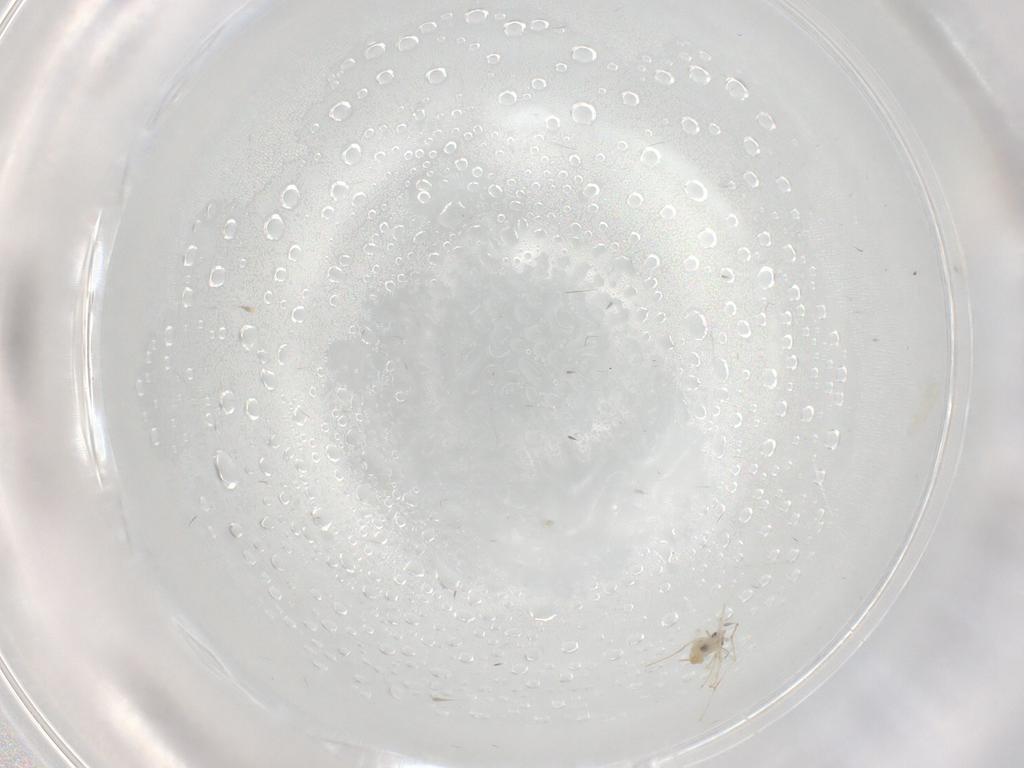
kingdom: Animalia
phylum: Arthropoda
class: Insecta
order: Diptera
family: Cecidomyiidae
